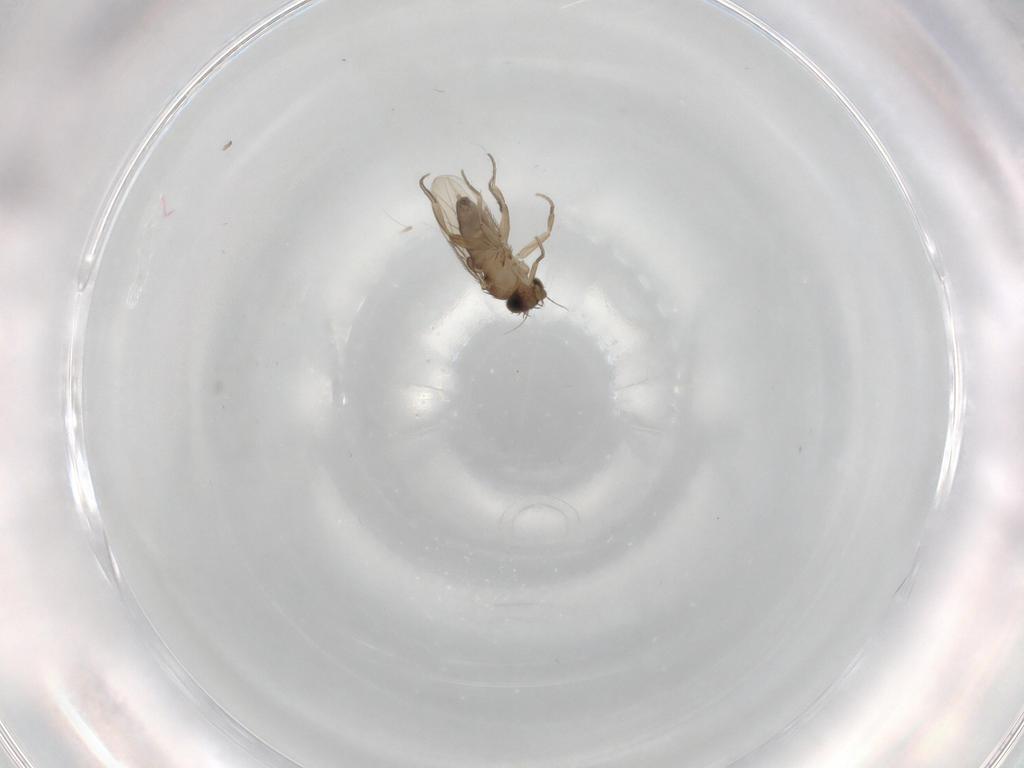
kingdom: Animalia
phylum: Arthropoda
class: Insecta
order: Diptera
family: Phoridae
